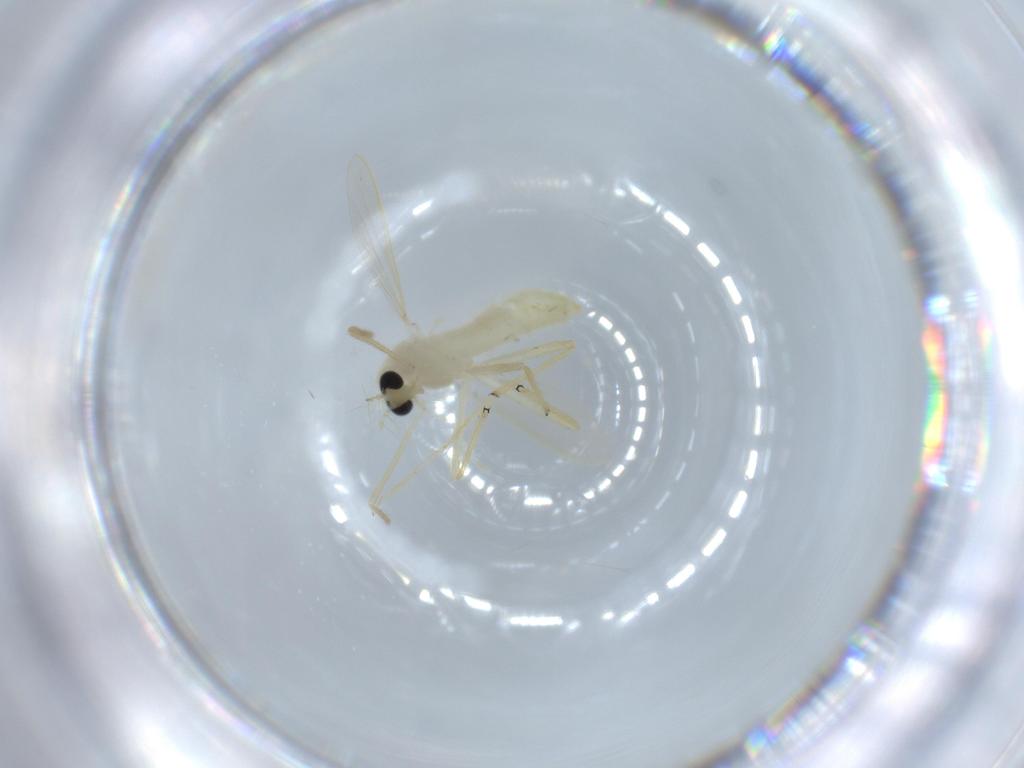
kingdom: Animalia
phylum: Arthropoda
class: Insecta
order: Diptera
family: Chironomidae
